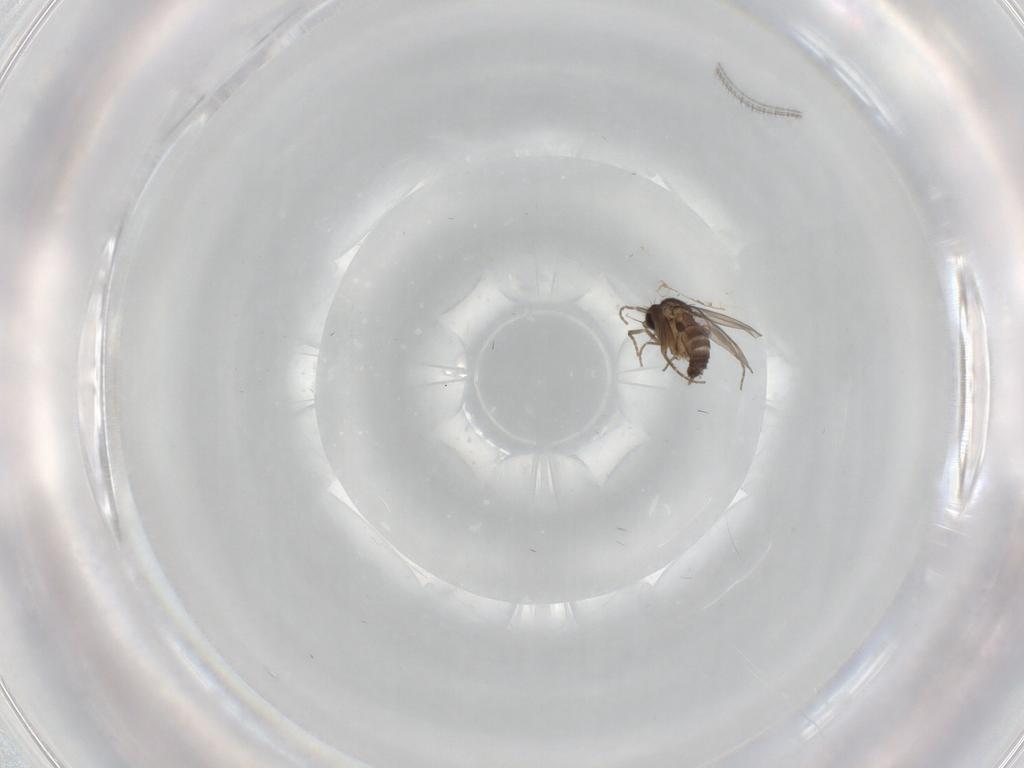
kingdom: Animalia
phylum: Arthropoda
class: Insecta
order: Diptera
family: Ceratopogonidae
